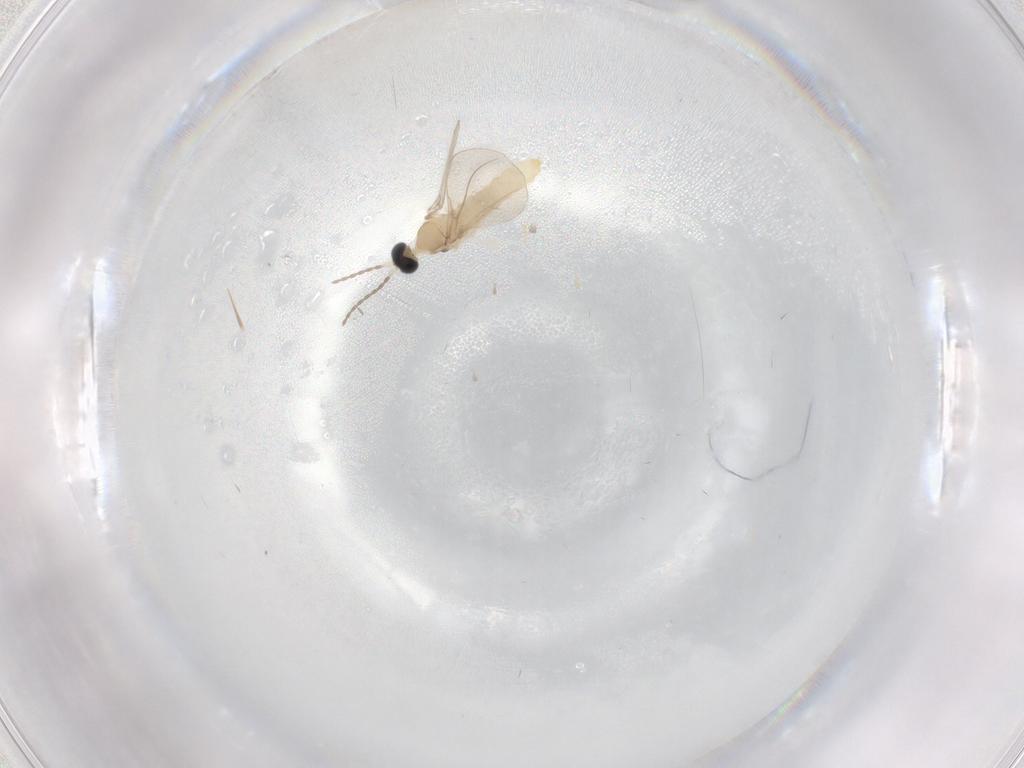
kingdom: Animalia
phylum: Arthropoda
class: Insecta
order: Diptera
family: Cecidomyiidae
